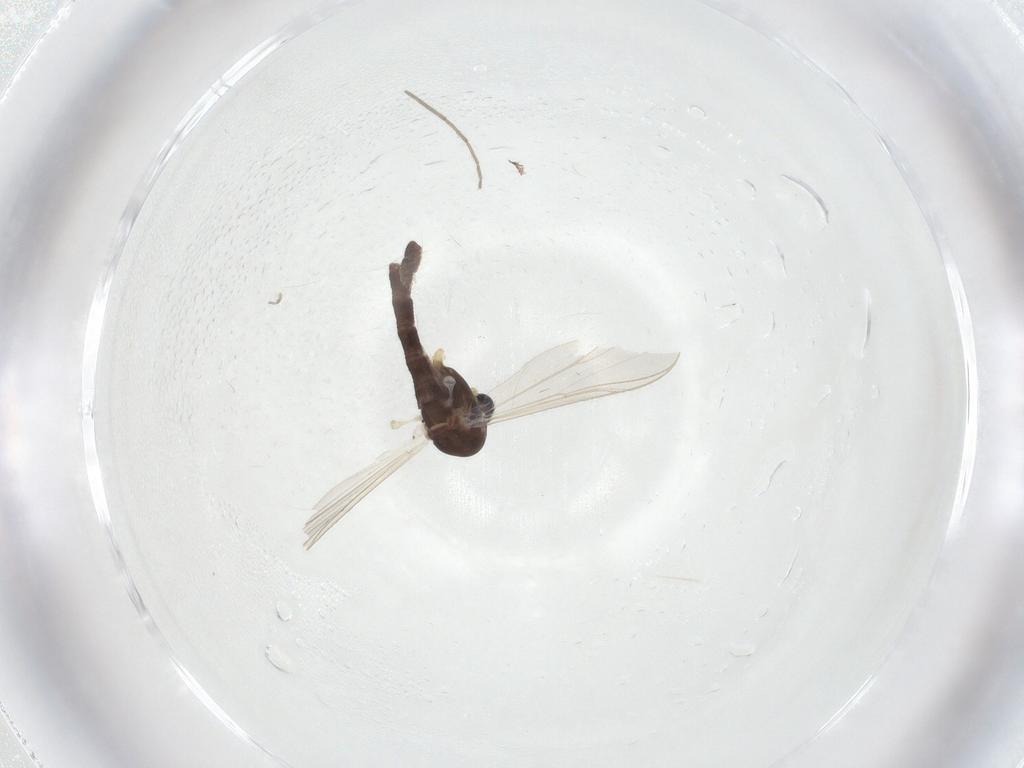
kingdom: Animalia
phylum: Arthropoda
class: Insecta
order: Diptera
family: Chironomidae
